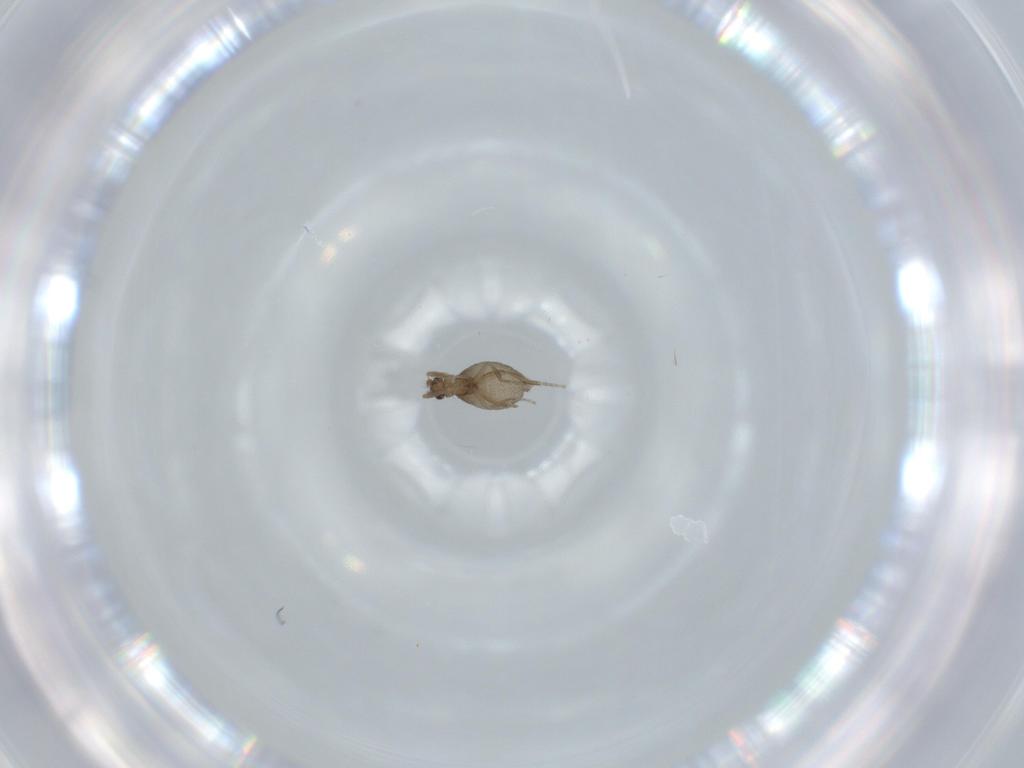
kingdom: Animalia
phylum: Arthropoda
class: Insecta
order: Diptera
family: Phoridae
